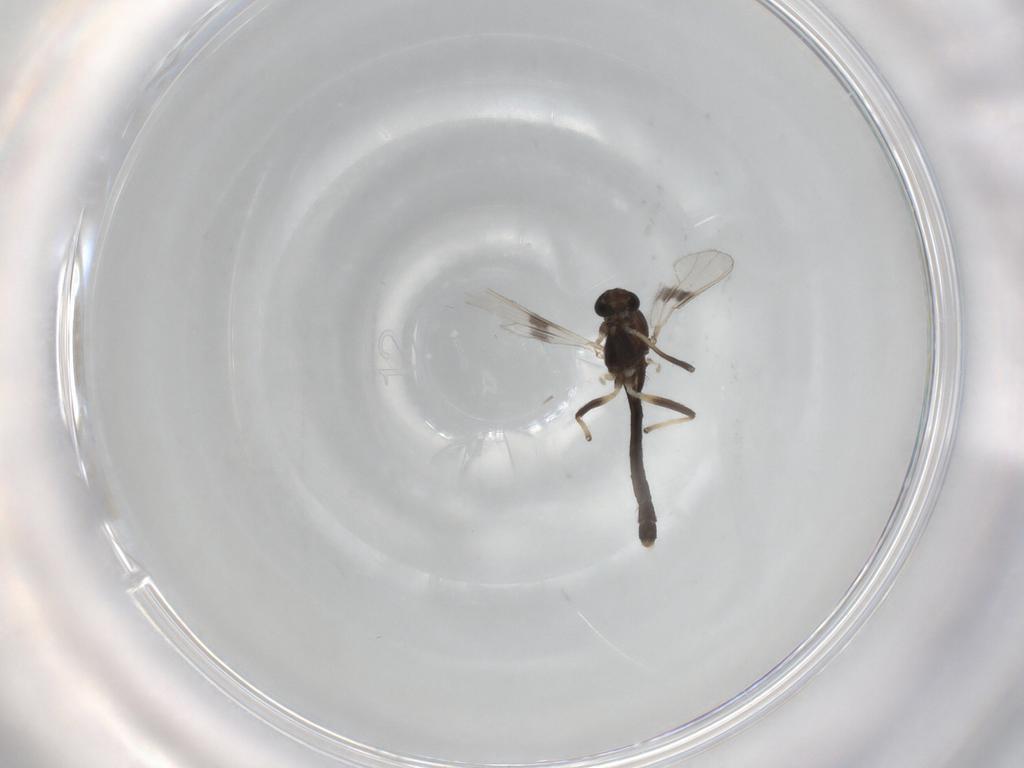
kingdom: Animalia
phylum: Arthropoda
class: Insecta
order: Diptera
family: Chironomidae
